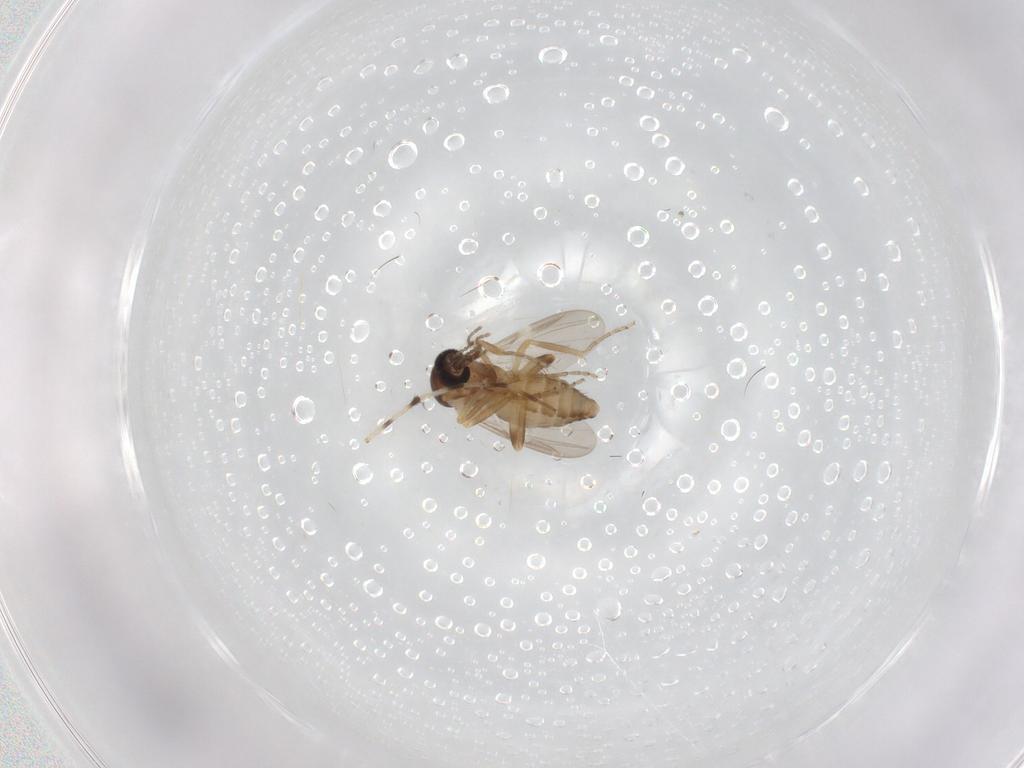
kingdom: Animalia
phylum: Arthropoda
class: Insecta
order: Diptera
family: Ceratopogonidae
